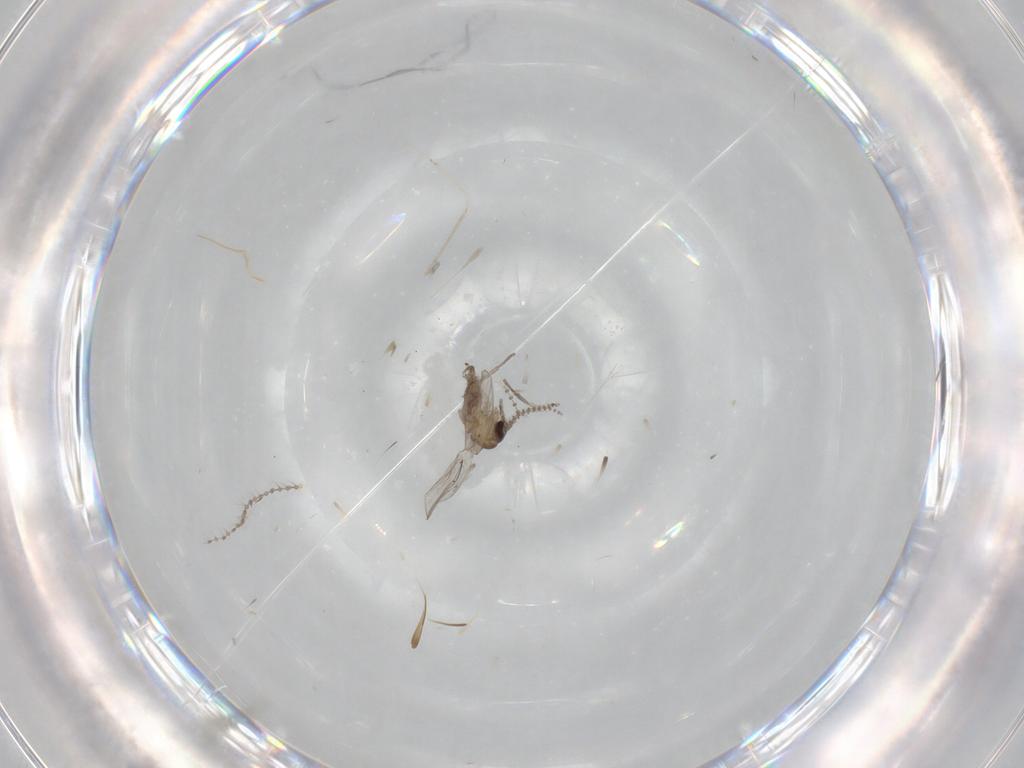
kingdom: Animalia
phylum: Arthropoda
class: Insecta
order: Diptera
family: Psychodidae
